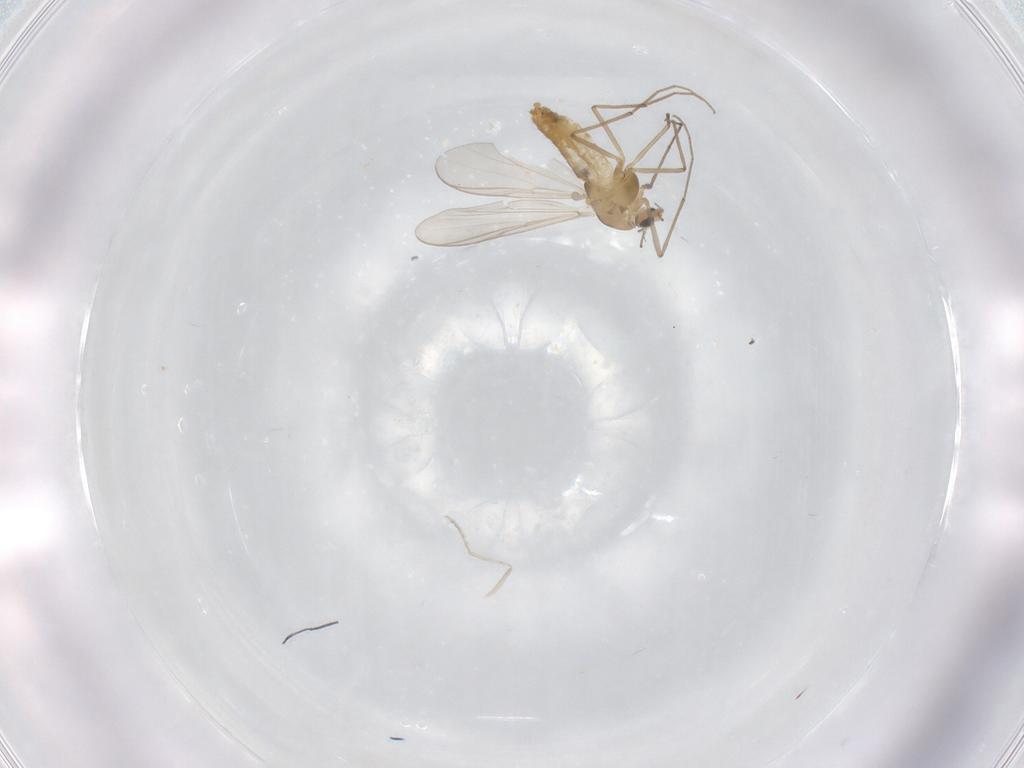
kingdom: Animalia
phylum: Arthropoda
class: Insecta
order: Diptera
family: Chironomidae
